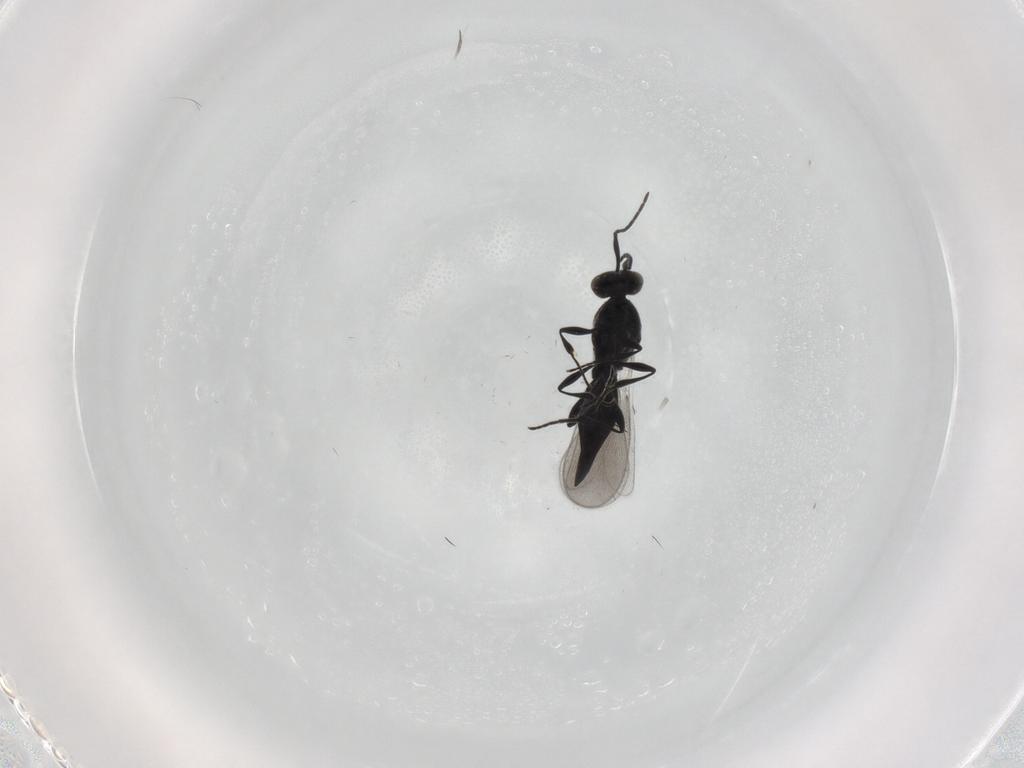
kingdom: Animalia
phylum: Arthropoda
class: Insecta
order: Diptera
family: Mythicomyiidae
